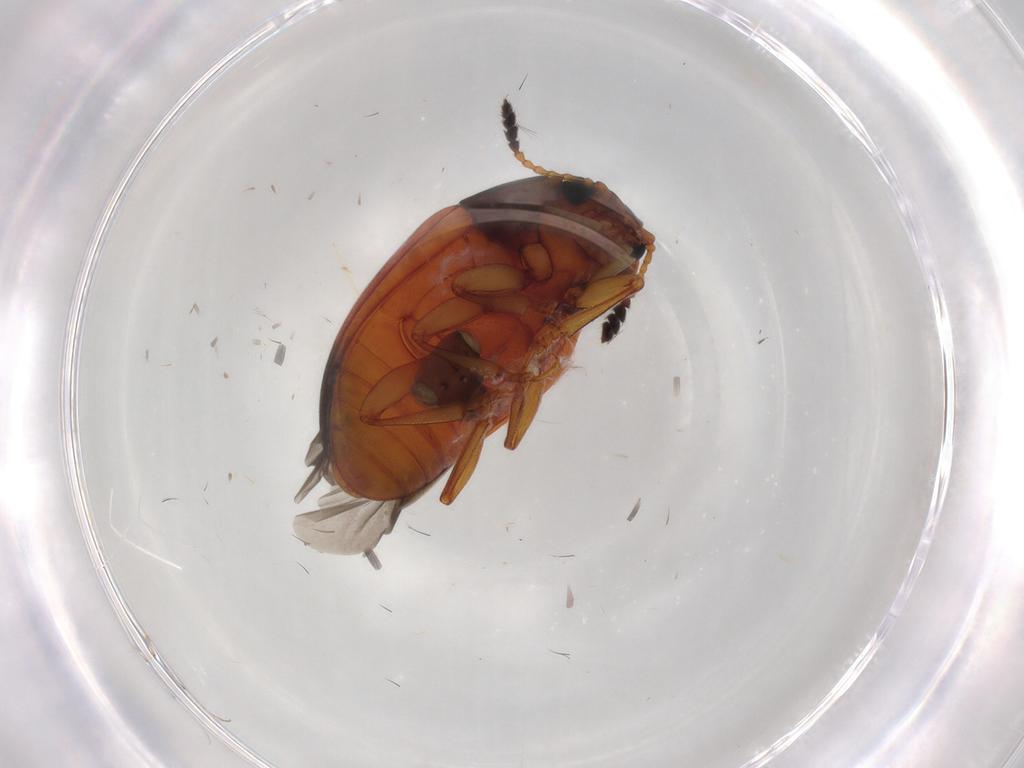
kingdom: Animalia
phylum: Arthropoda
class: Insecta
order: Coleoptera
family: Erotylidae
